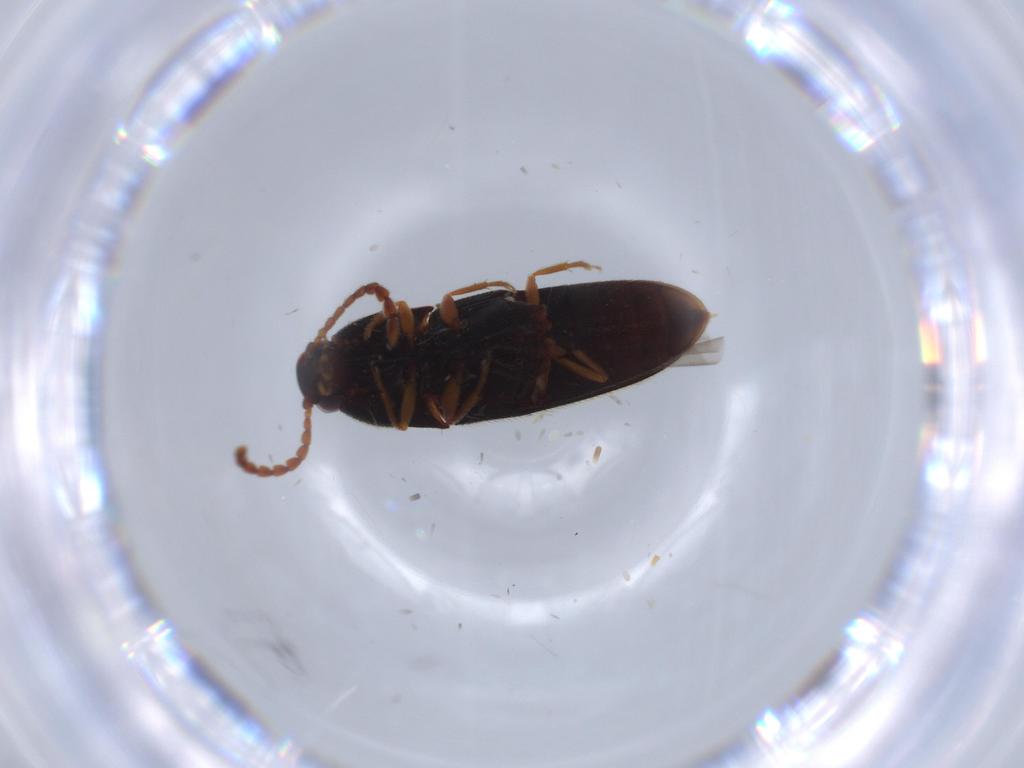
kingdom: Animalia
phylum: Arthropoda
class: Insecta
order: Coleoptera
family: Elateridae
